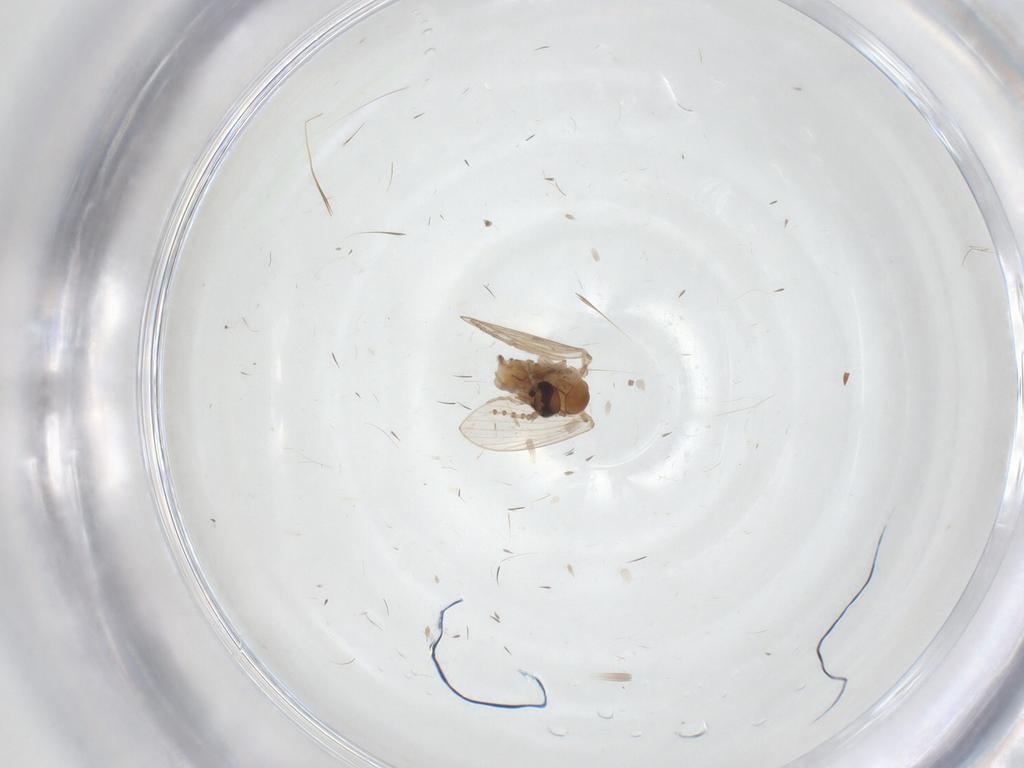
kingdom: Animalia
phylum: Arthropoda
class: Insecta
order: Diptera
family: Psychodidae
